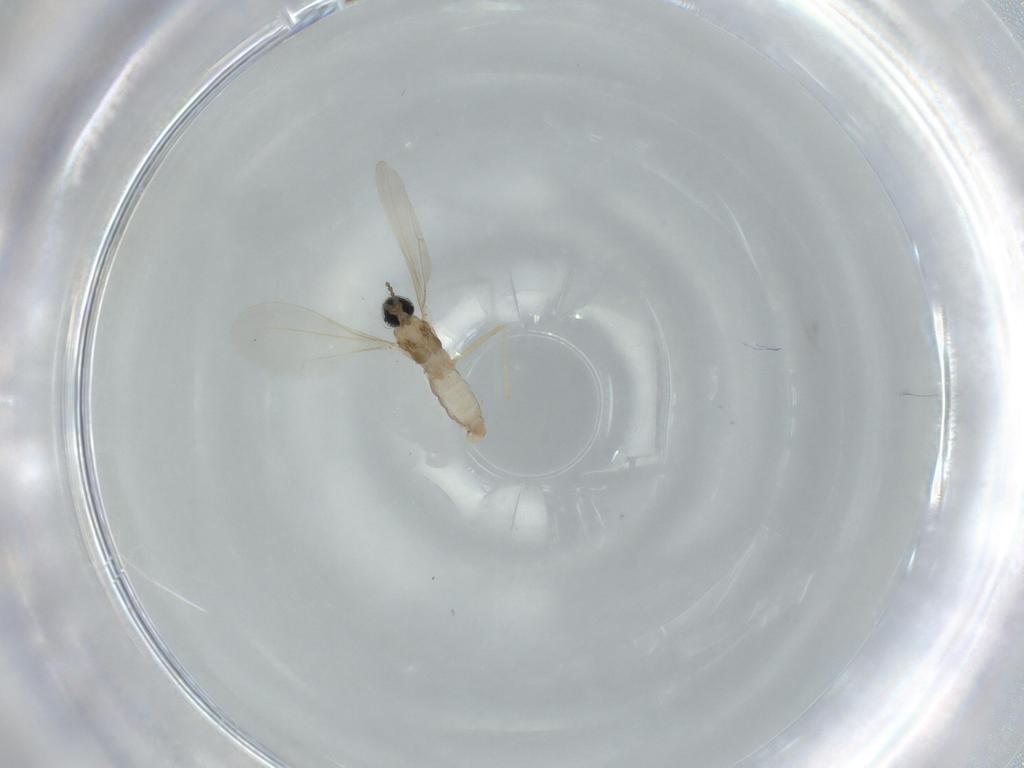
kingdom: Animalia
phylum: Arthropoda
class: Insecta
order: Diptera
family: Cecidomyiidae
